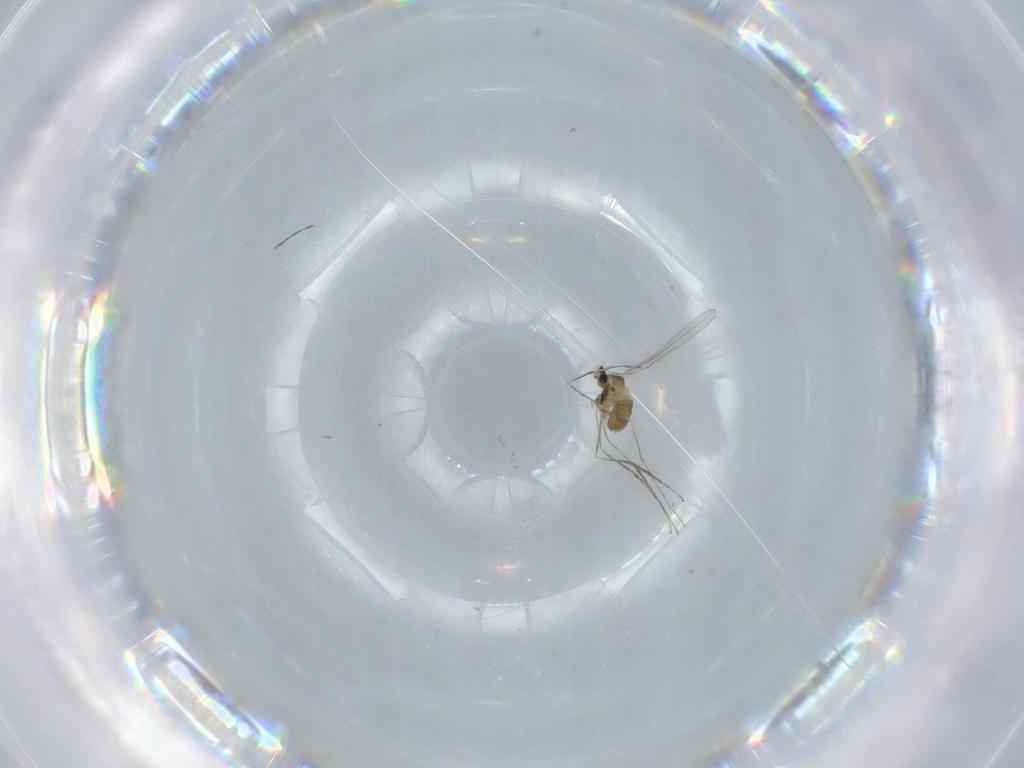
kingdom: Animalia
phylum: Arthropoda
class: Insecta
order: Diptera
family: Cecidomyiidae
